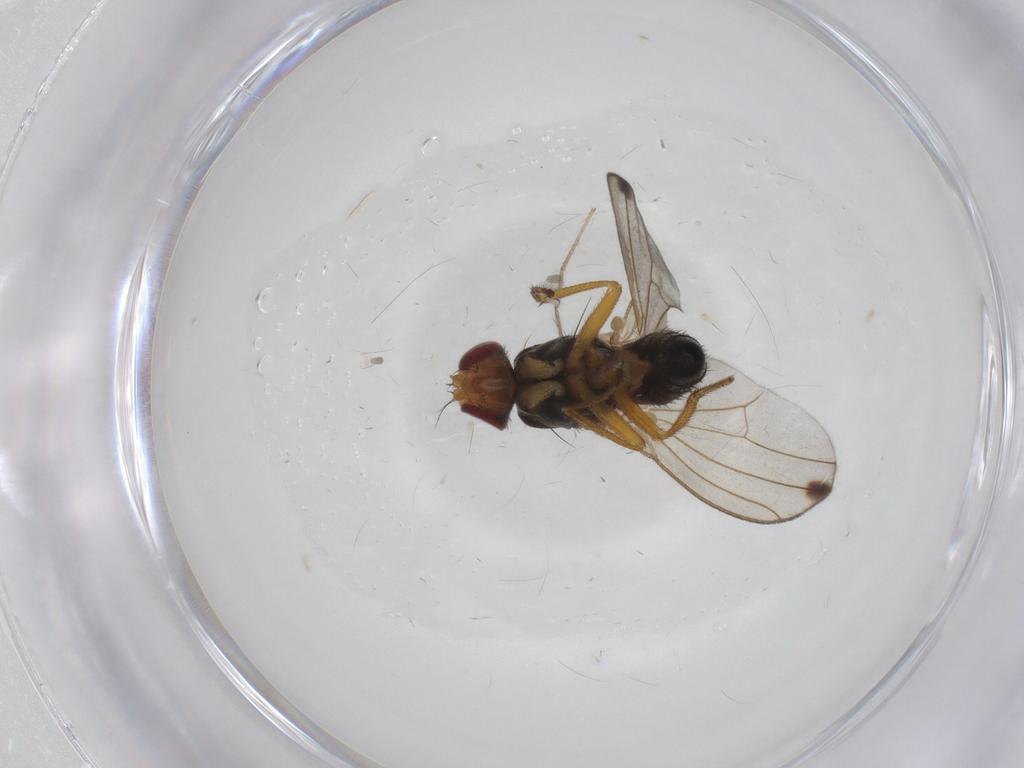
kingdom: Animalia
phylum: Arthropoda
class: Insecta
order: Diptera
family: Drosophilidae
